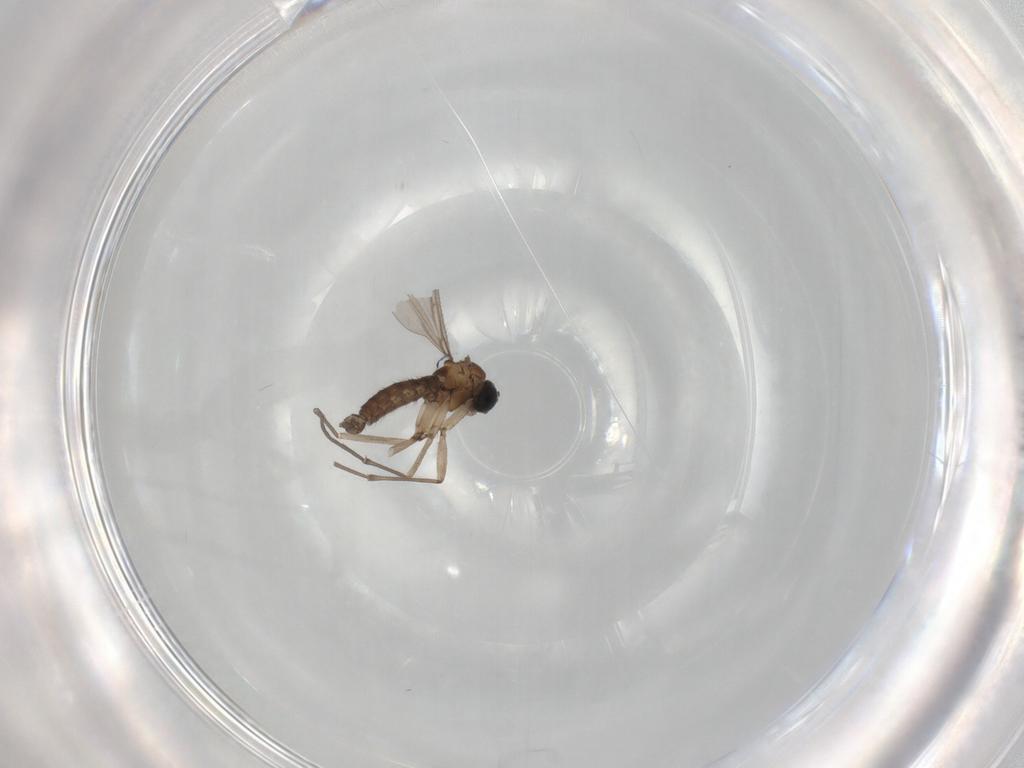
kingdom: Animalia
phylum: Arthropoda
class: Insecta
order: Diptera
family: Sciaridae
